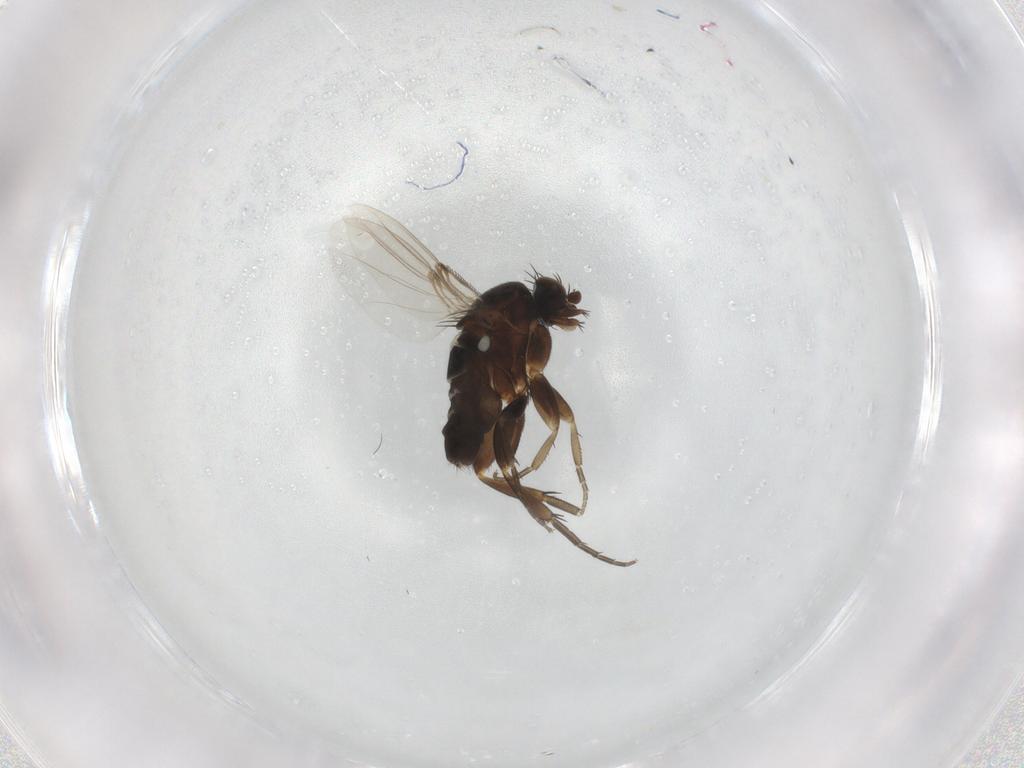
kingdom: Animalia
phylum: Arthropoda
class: Insecta
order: Diptera
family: Phoridae
